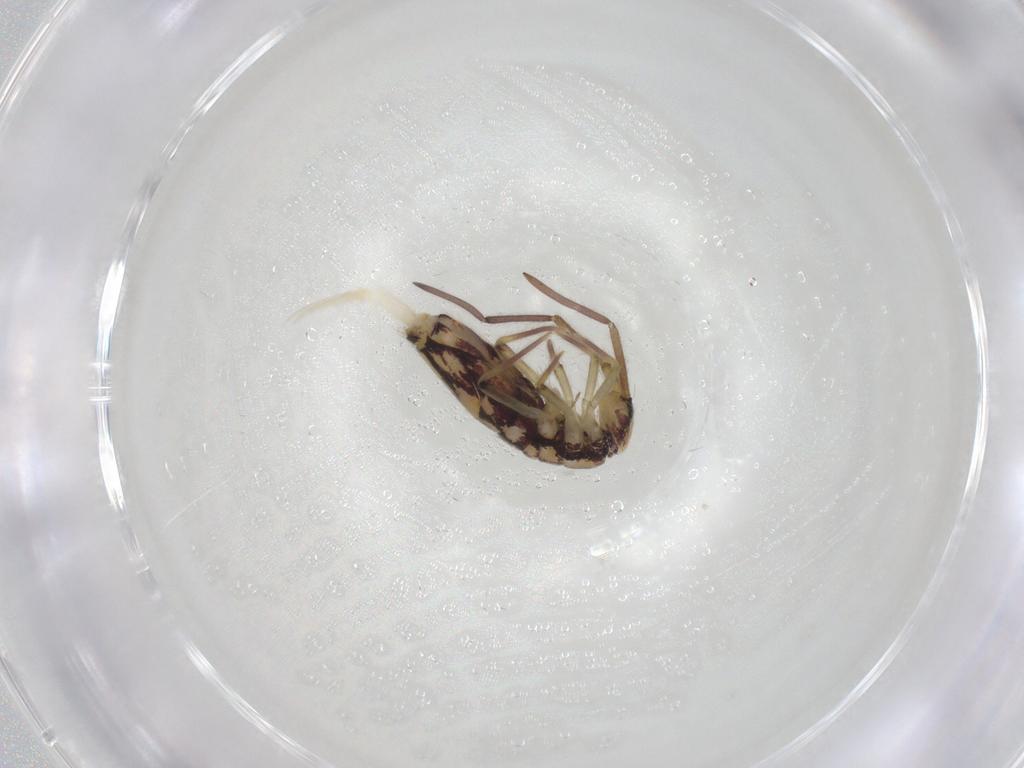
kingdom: Animalia
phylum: Arthropoda
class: Collembola
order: Entomobryomorpha
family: Entomobryidae
